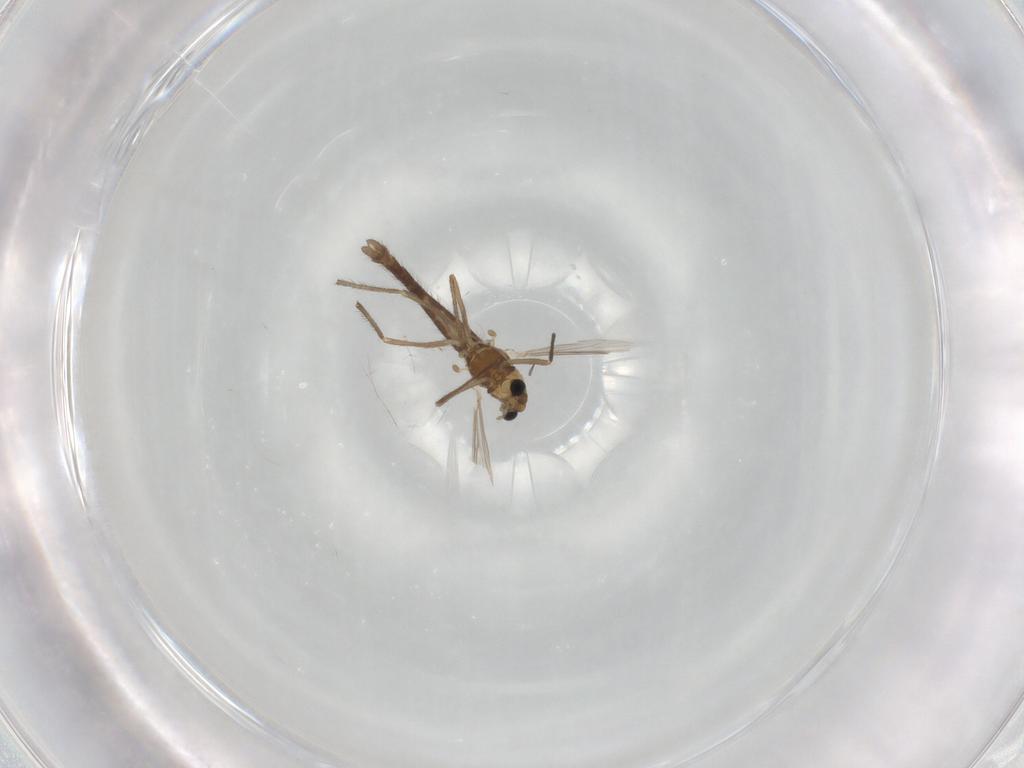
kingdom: Animalia
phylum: Arthropoda
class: Insecta
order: Diptera
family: Chironomidae
